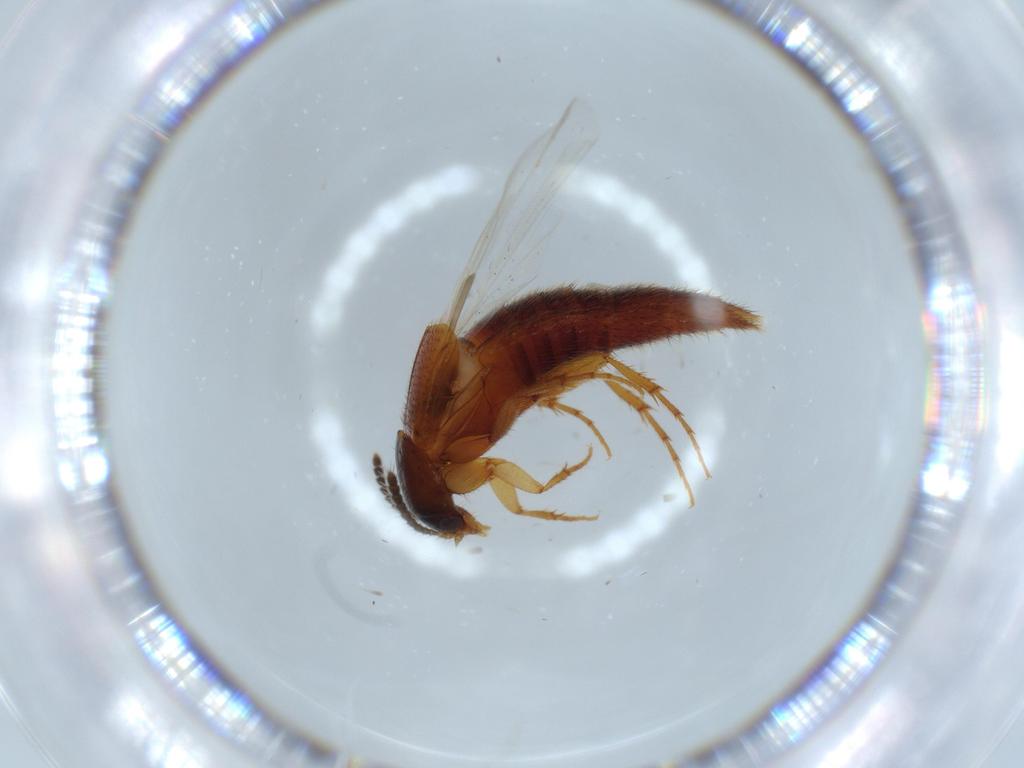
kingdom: Animalia
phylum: Arthropoda
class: Insecta
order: Coleoptera
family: Staphylinidae
